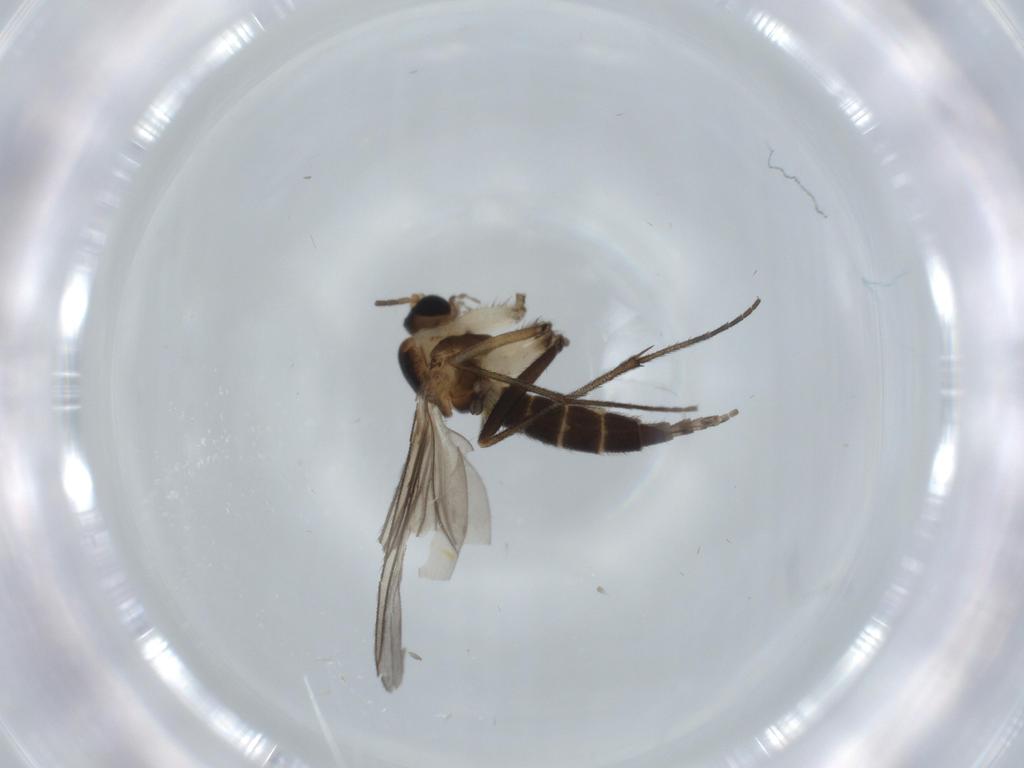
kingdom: Animalia
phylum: Arthropoda
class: Insecta
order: Diptera
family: Sciaridae
